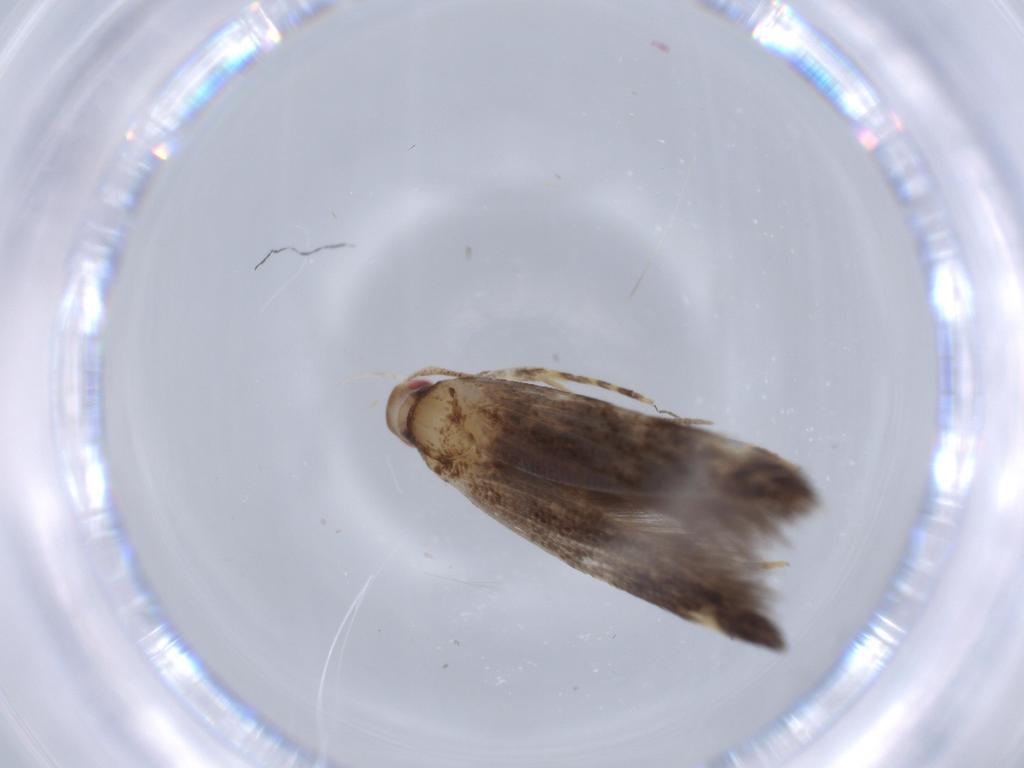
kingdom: Animalia
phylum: Arthropoda
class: Insecta
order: Lepidoptera
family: Cosmopterigidae
